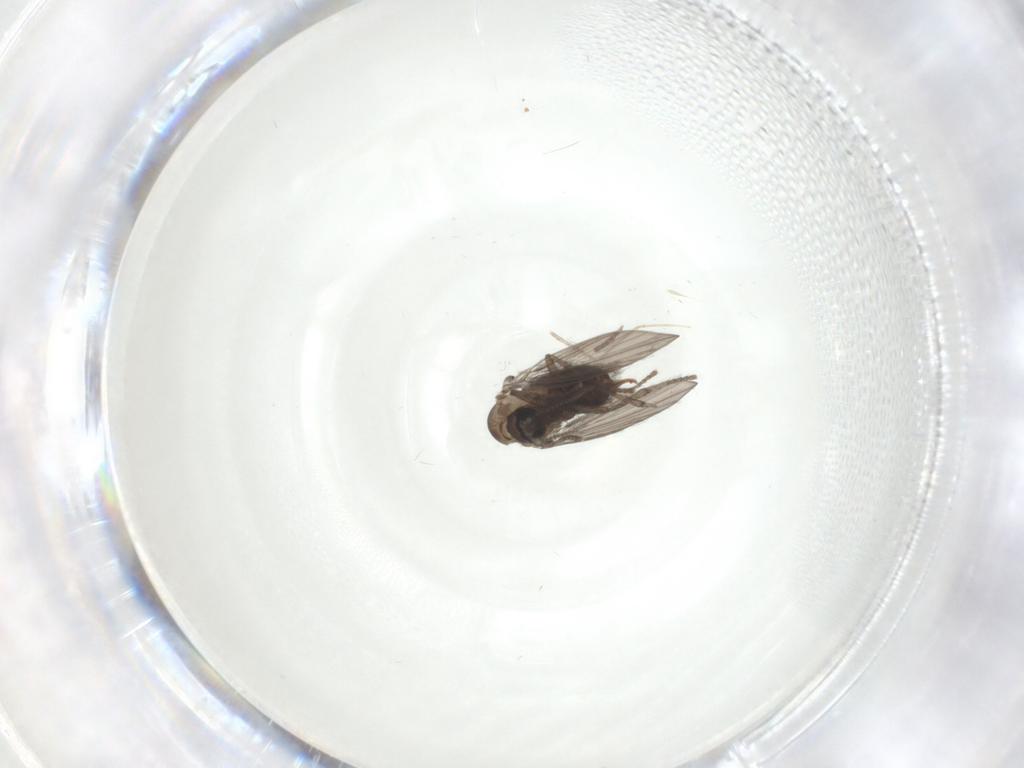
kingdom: Animalia
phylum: Arthropoda
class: Insecta
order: Diptera
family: Psychodidae
